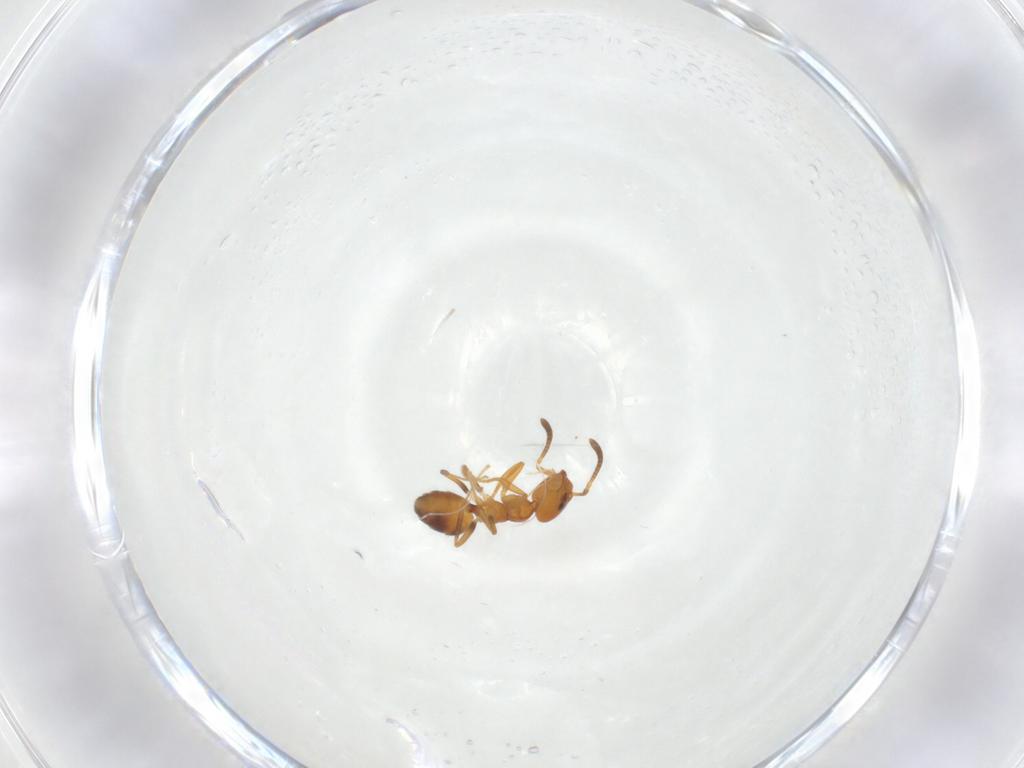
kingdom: Animalia
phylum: Arthropoda
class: Insecta
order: Hymenoptera
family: Formicidae
